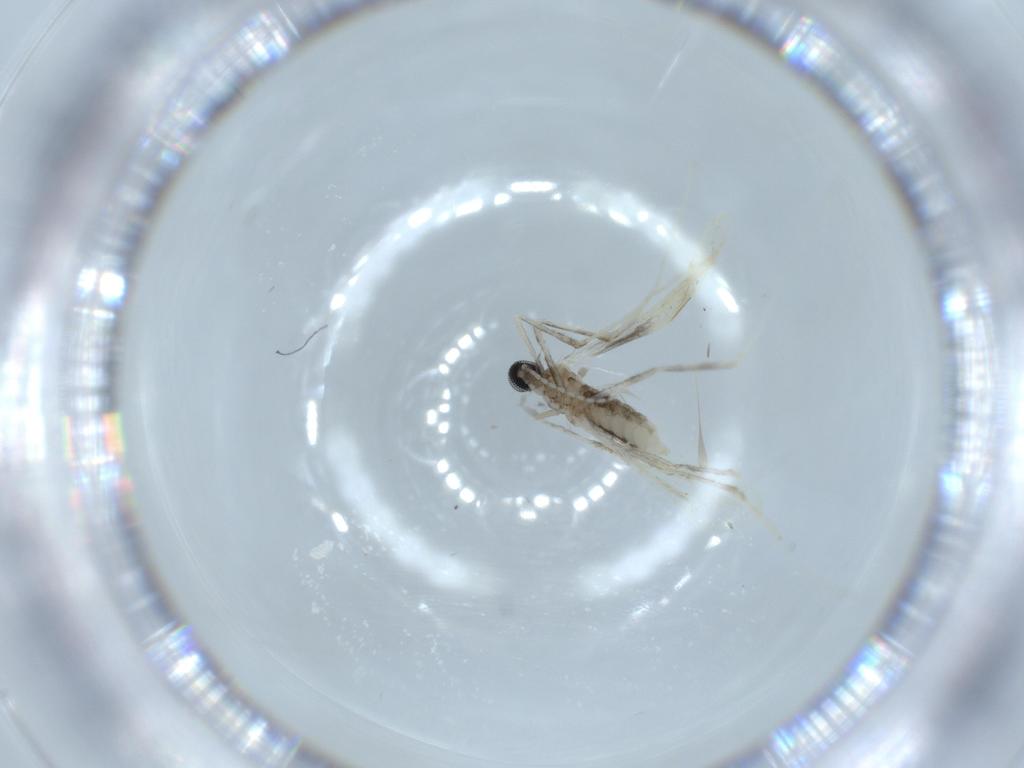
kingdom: Animalia
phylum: Arthropoda
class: Insecta
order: Diptera
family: Cecidomyiidae
